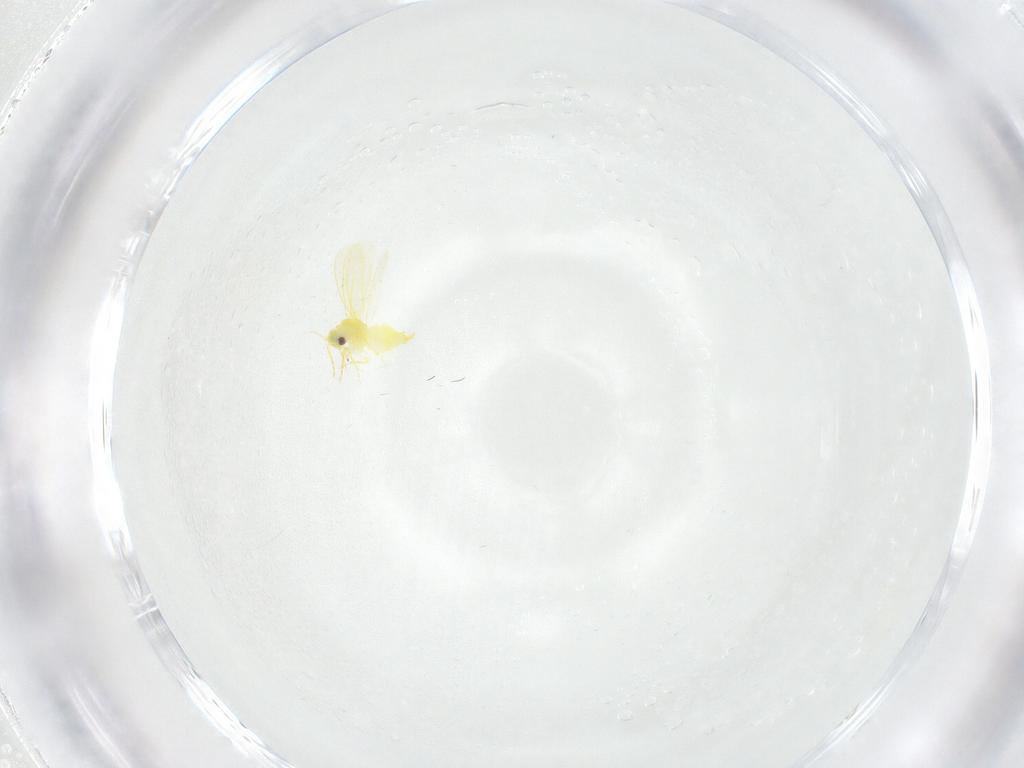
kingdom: Animalia
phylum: Arthropoda
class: Insecta
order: Hemiptera
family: Aleyrodidae
